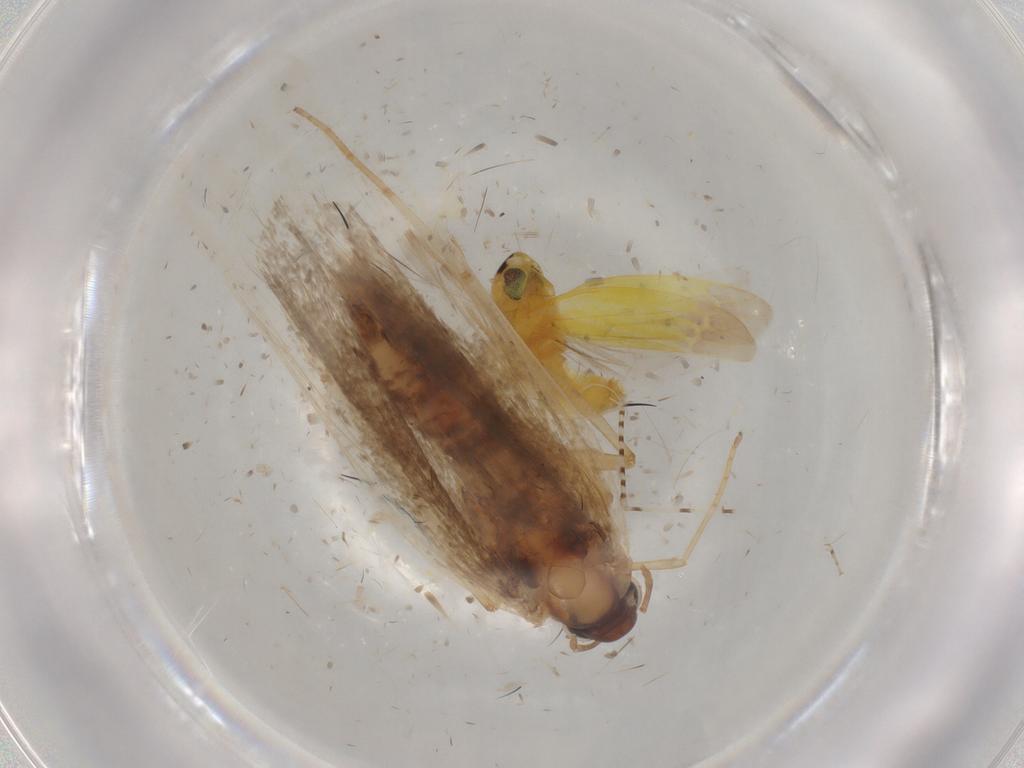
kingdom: Animalia
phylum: Arthropoda
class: Insecta
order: Lepidoptera
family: Gelechiidae
